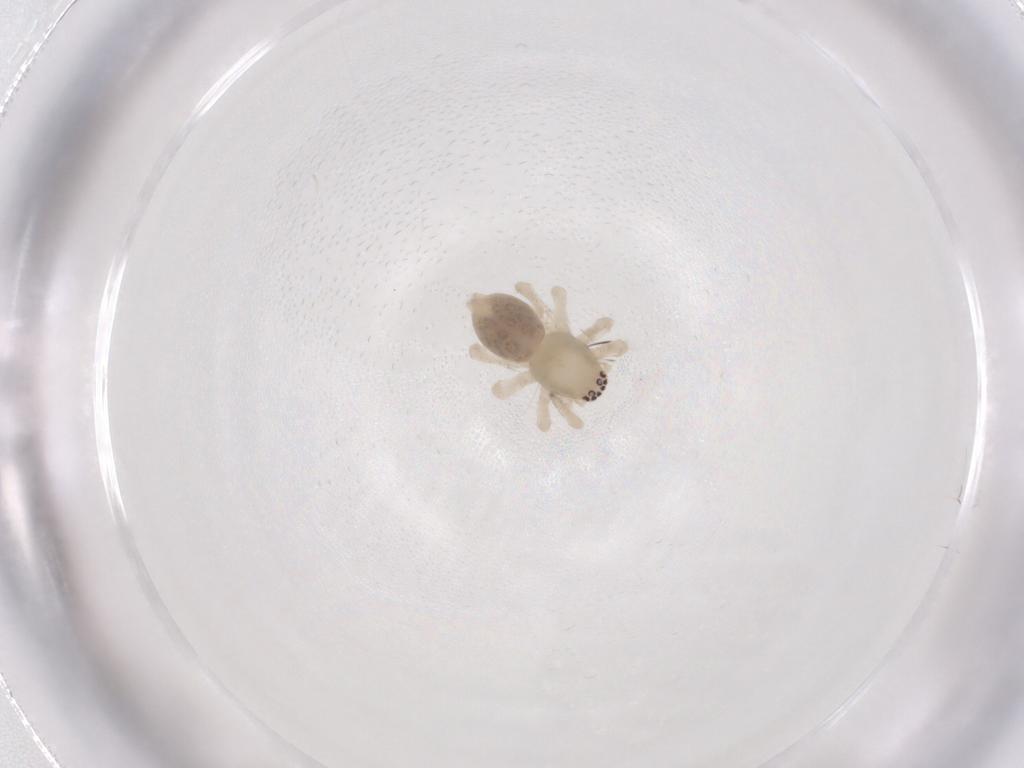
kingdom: Animalia
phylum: Arthropoda
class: Arachnida
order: Araneae
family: Clubionidae
